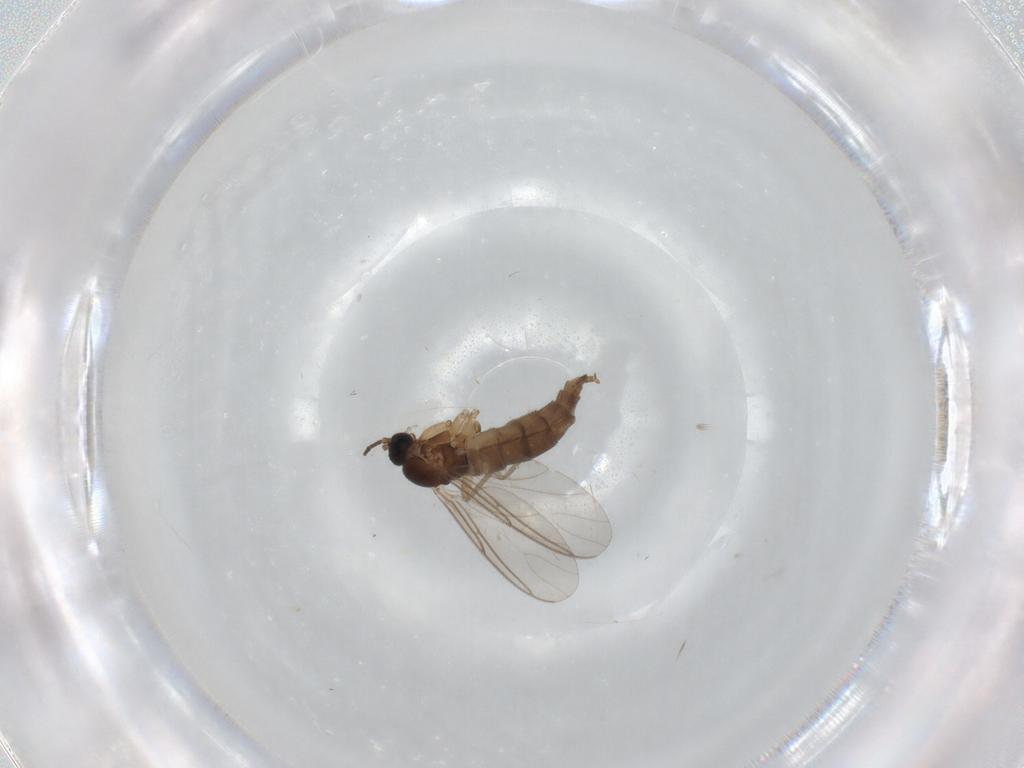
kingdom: Animalia
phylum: Arthropoda
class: Insecta
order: Diptera
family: Sciaridae
